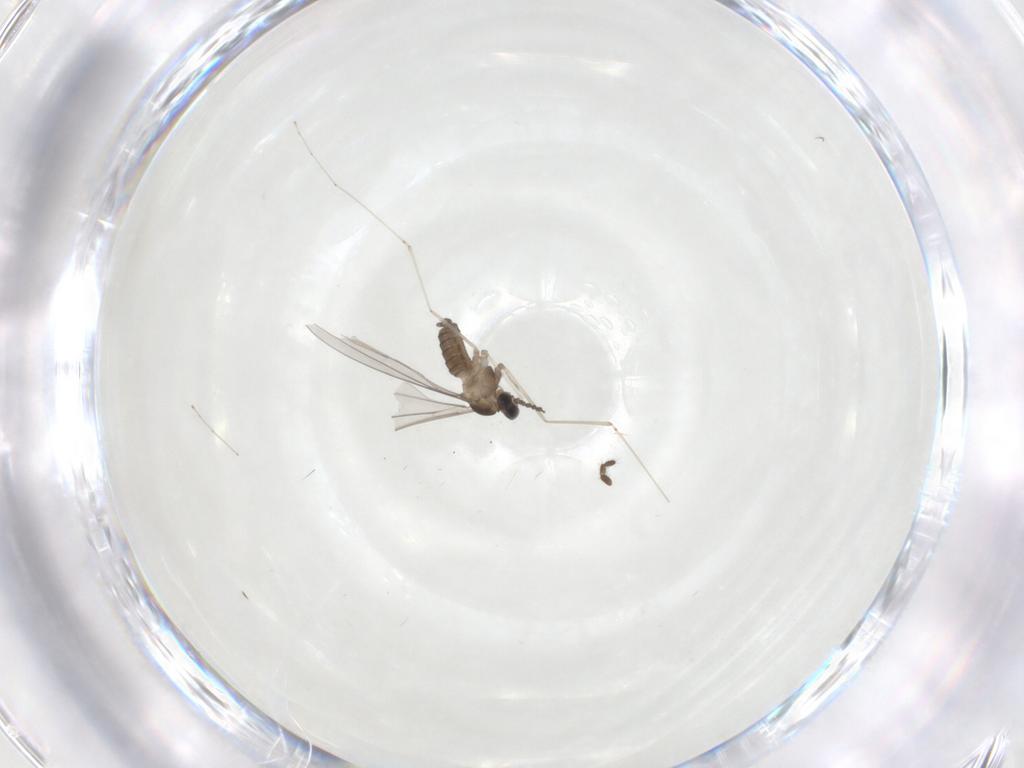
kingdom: Animalia
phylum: Arthropoda
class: Insecta
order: Diptera
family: Cecidomyiidae
